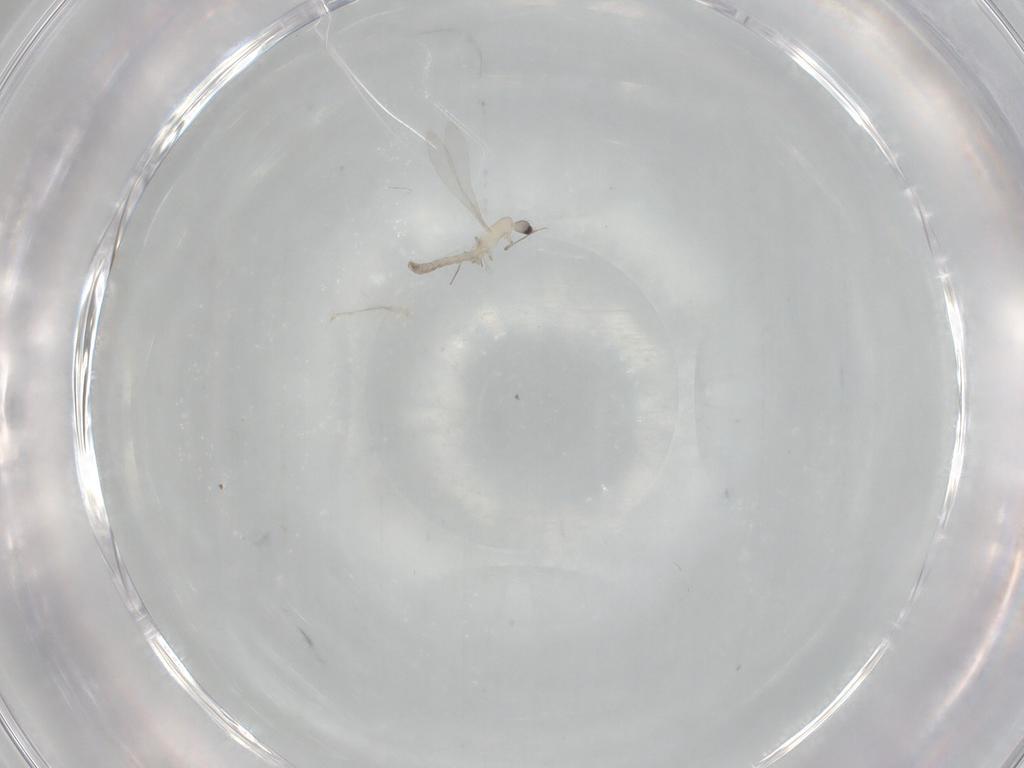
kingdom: Animalia
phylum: Arthropoda
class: Insecta
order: Diptera
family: Cecidomyiidae
